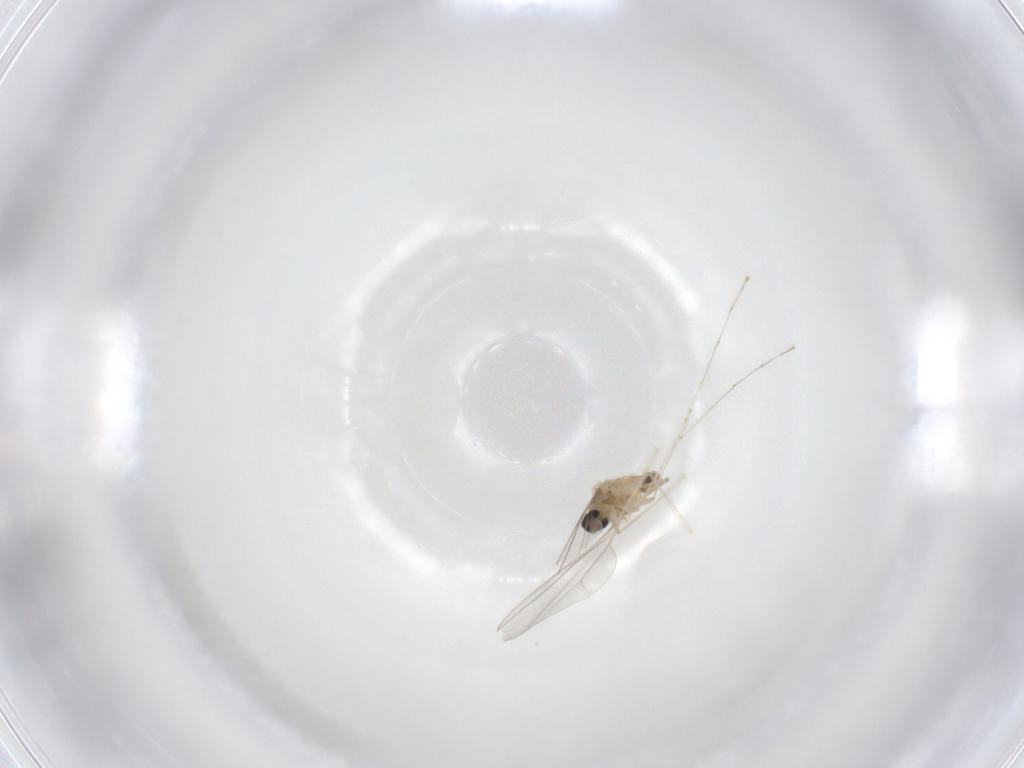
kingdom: Animalia
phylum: Arthropoda
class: Insecta
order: Diptera
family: Cecidomyiidae
